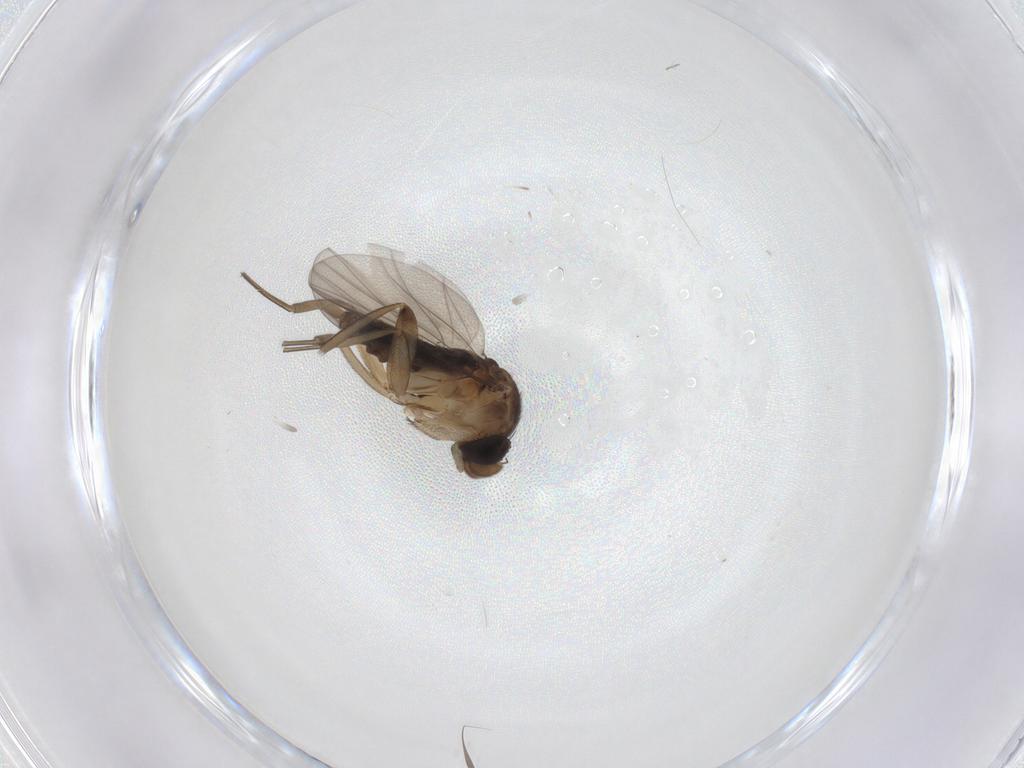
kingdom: Animalia
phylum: Arthropoda
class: Insecta
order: Diptera
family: Phoridae
